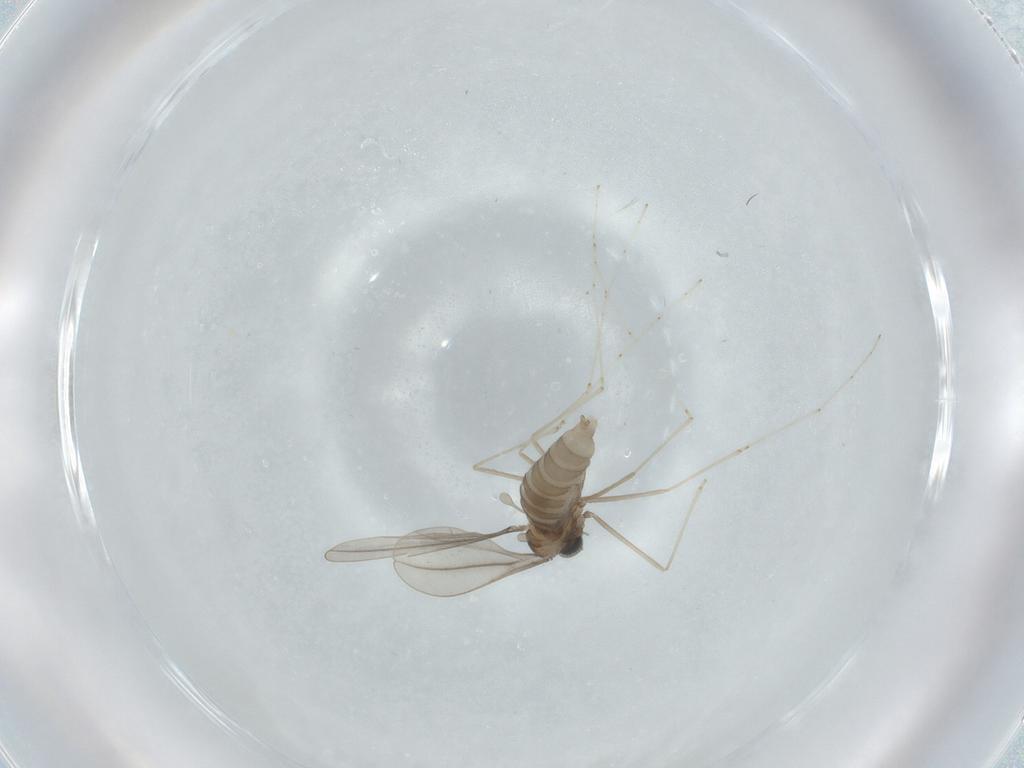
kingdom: Animalia
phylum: Arthropoda
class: Insecta
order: Diptera
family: Cecidomyiidae
